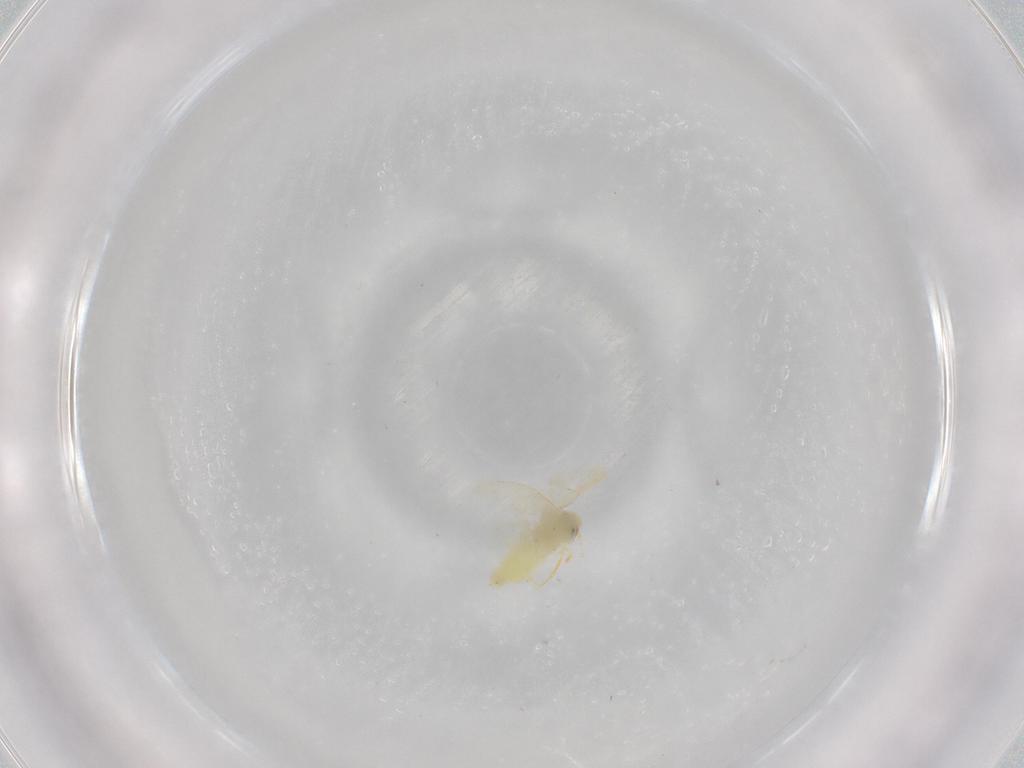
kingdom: Animalia
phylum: Arthropoda
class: Insecta
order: Hemiptera
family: Aleyrodidae
